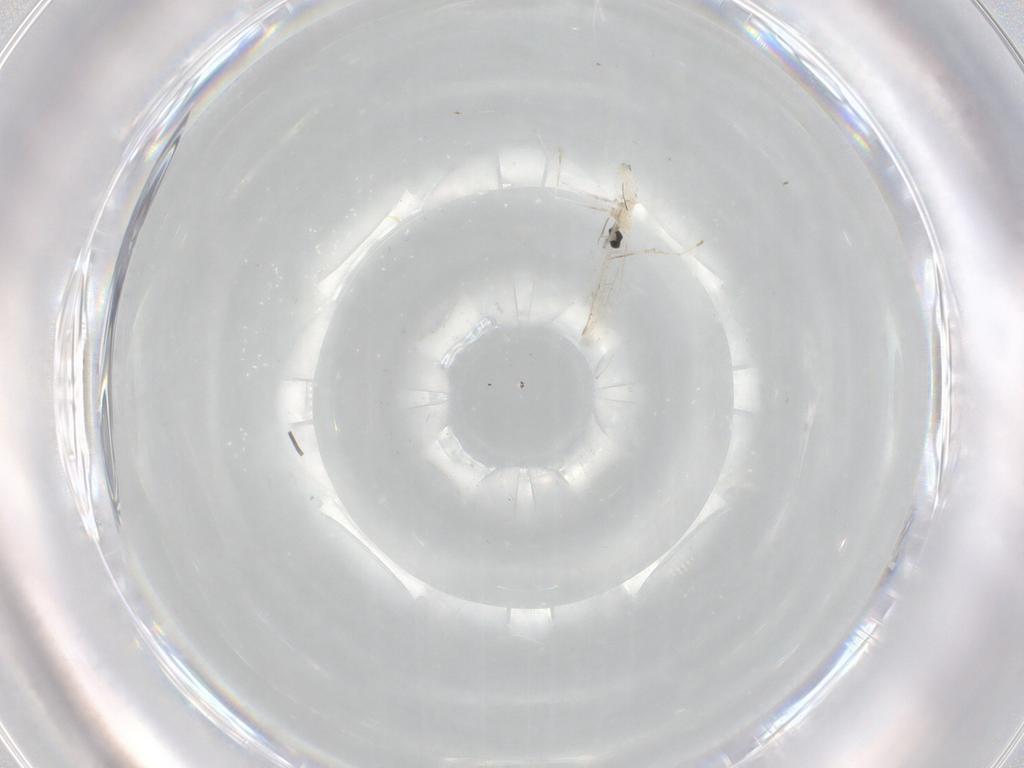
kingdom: Animalia
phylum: Arthropoda
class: Insecta
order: Diptera
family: Cecidomyiidae
